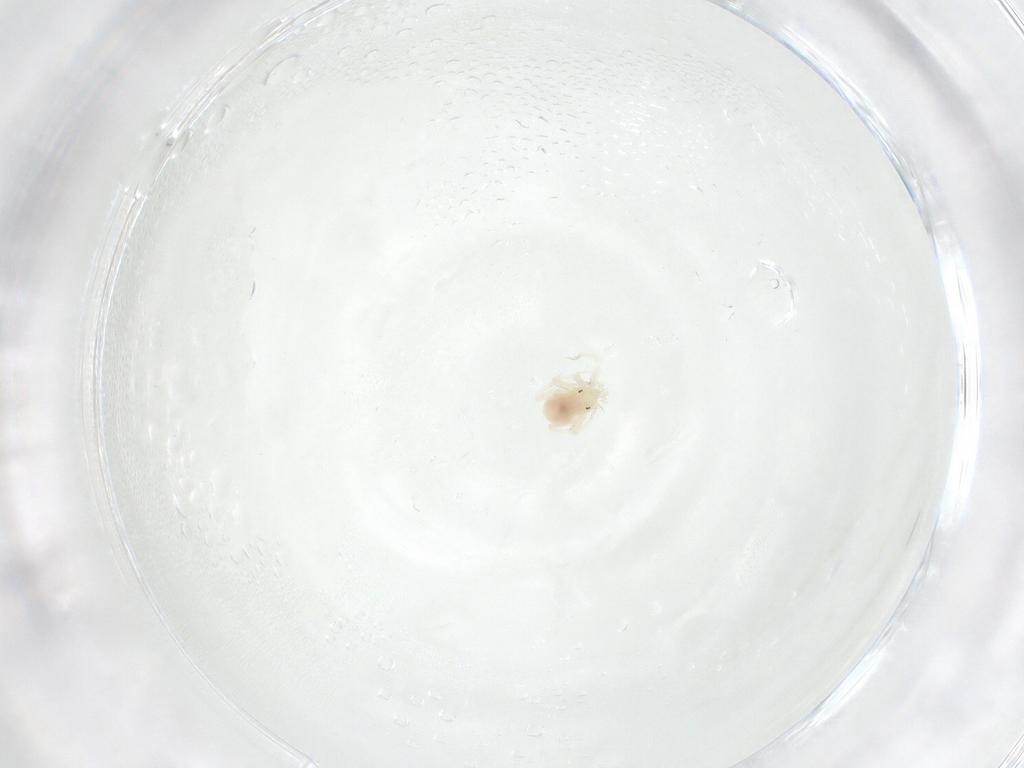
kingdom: Animalia
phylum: Arthropoda
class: Arachnida
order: Trombidiformes
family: Anystidae
